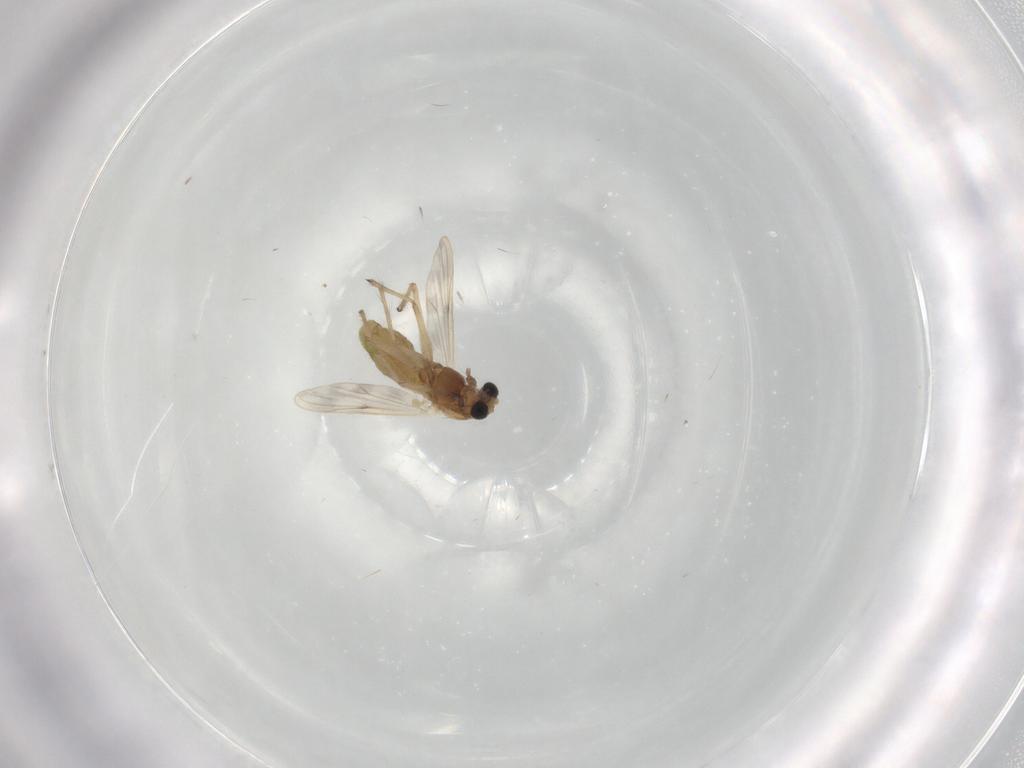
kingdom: Animalia
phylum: Arthropoda
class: Insecta
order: Diptera
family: Chironomidae
